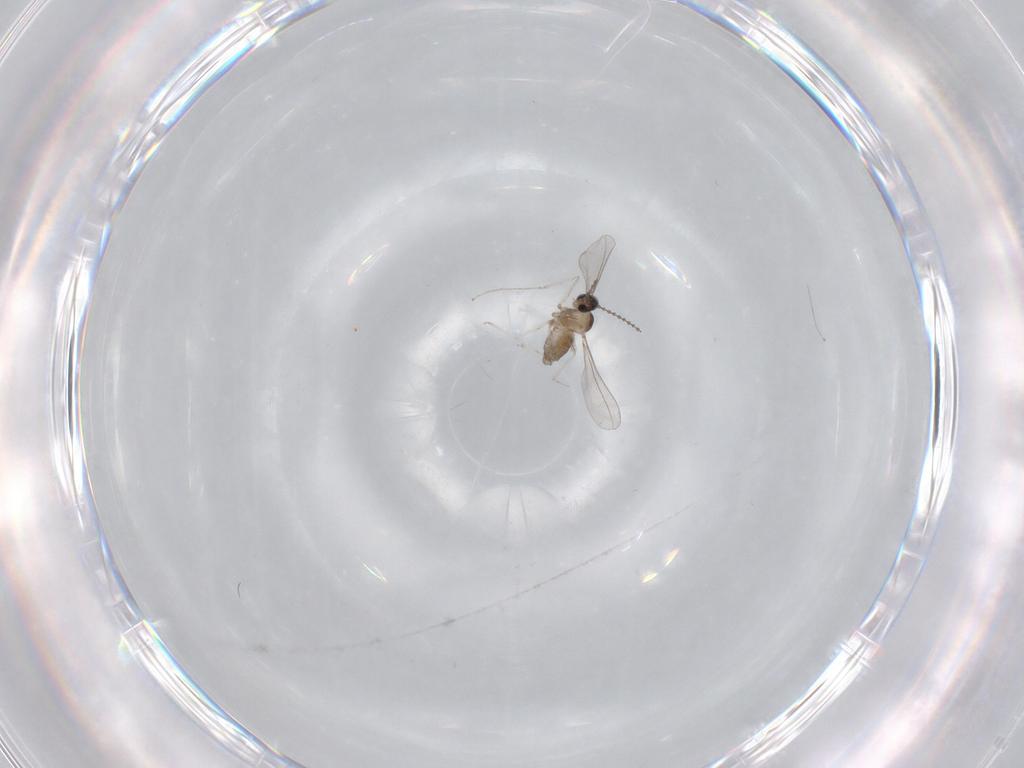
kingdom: Animalia
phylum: Arthropoda
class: Insecta
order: Diptera
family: Cecidomyiidae
